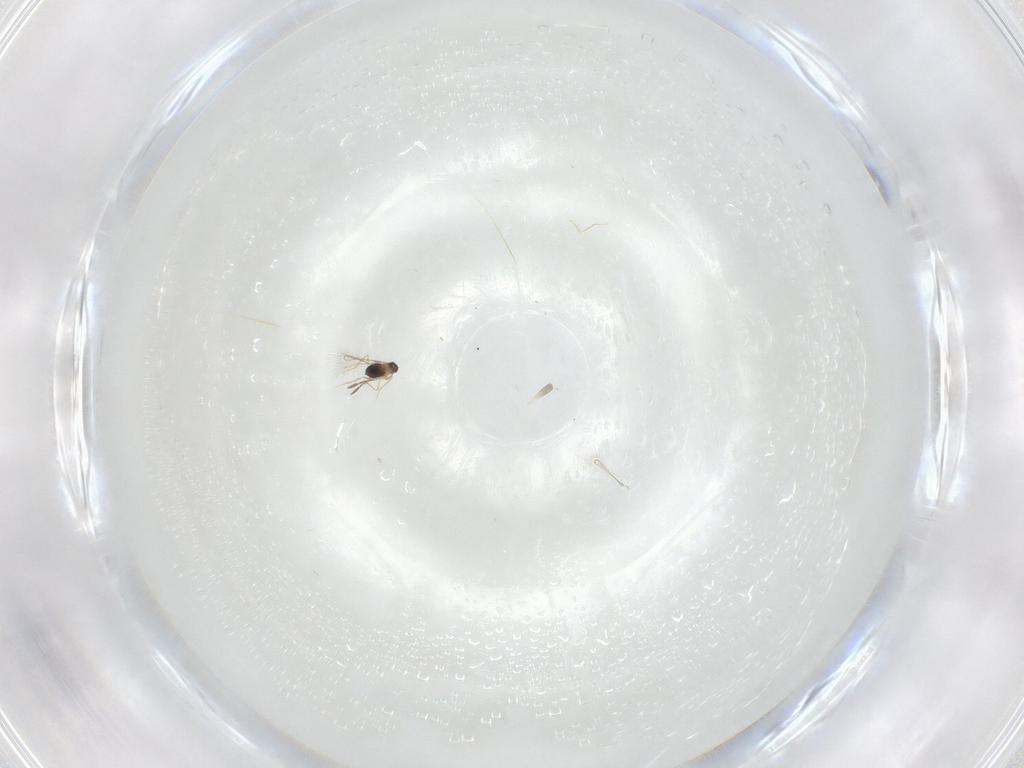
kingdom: Animalia
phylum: Arthropoda
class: Insecta
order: Hymenoptera
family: Mymaridae
